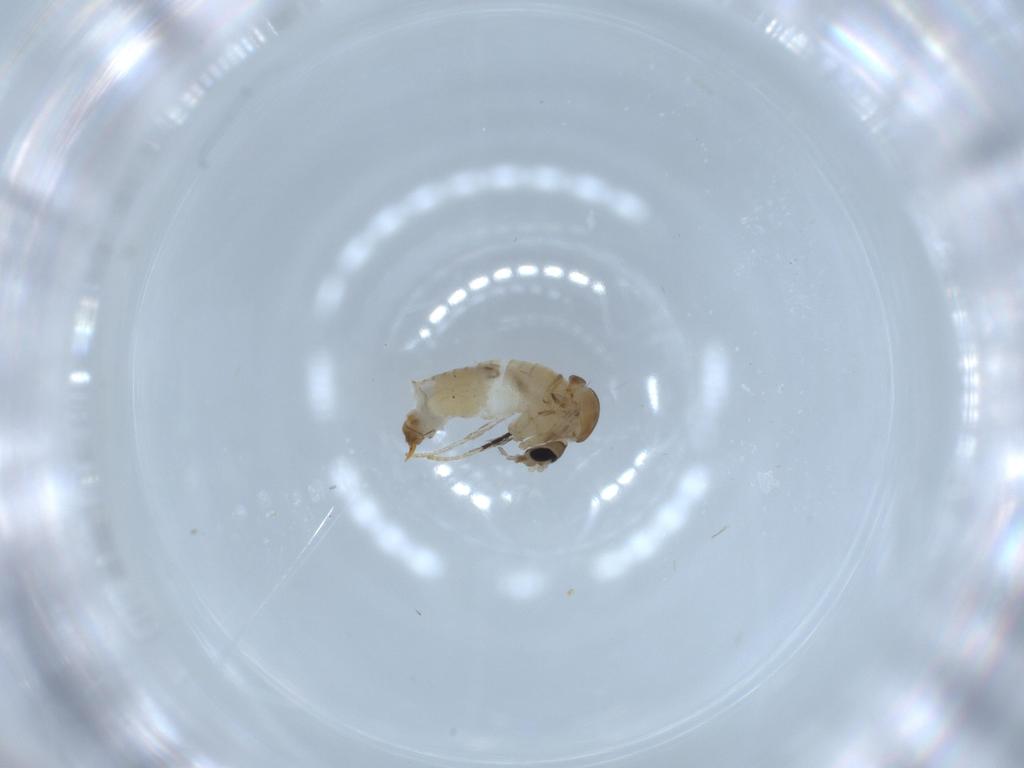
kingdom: Animalia
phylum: Arthropoda
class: Insecta
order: Diptera
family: Psychodidae
